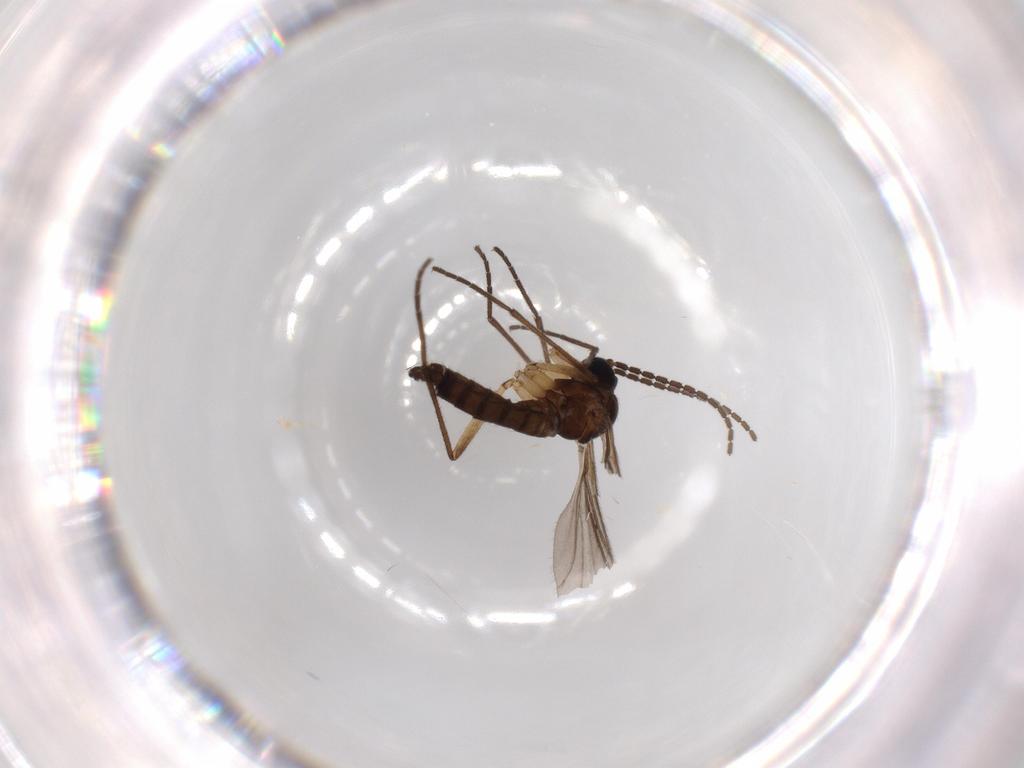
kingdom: Animalia
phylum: Arthropoda
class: Insecta
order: Diptera
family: Sciaridae
